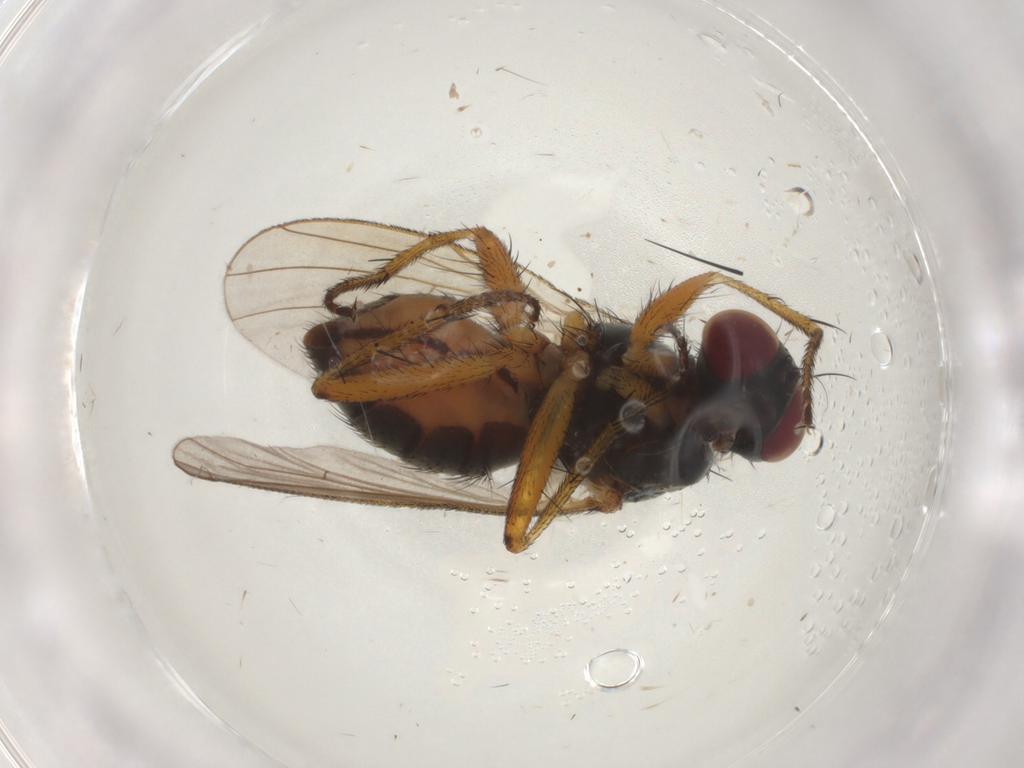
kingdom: Animalia
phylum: Arthropoda
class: Insecta
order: Diptera
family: Muscidae
